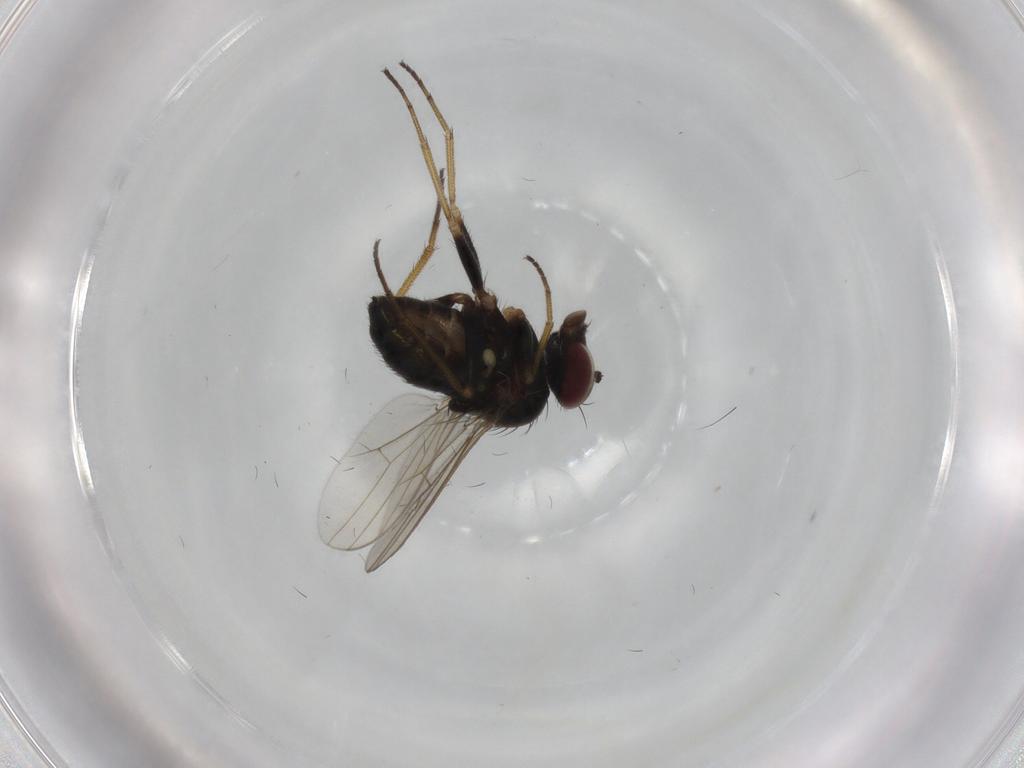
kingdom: Animalia
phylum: Arthropoda
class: Insecta
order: Diptera
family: Dolichopodidae
